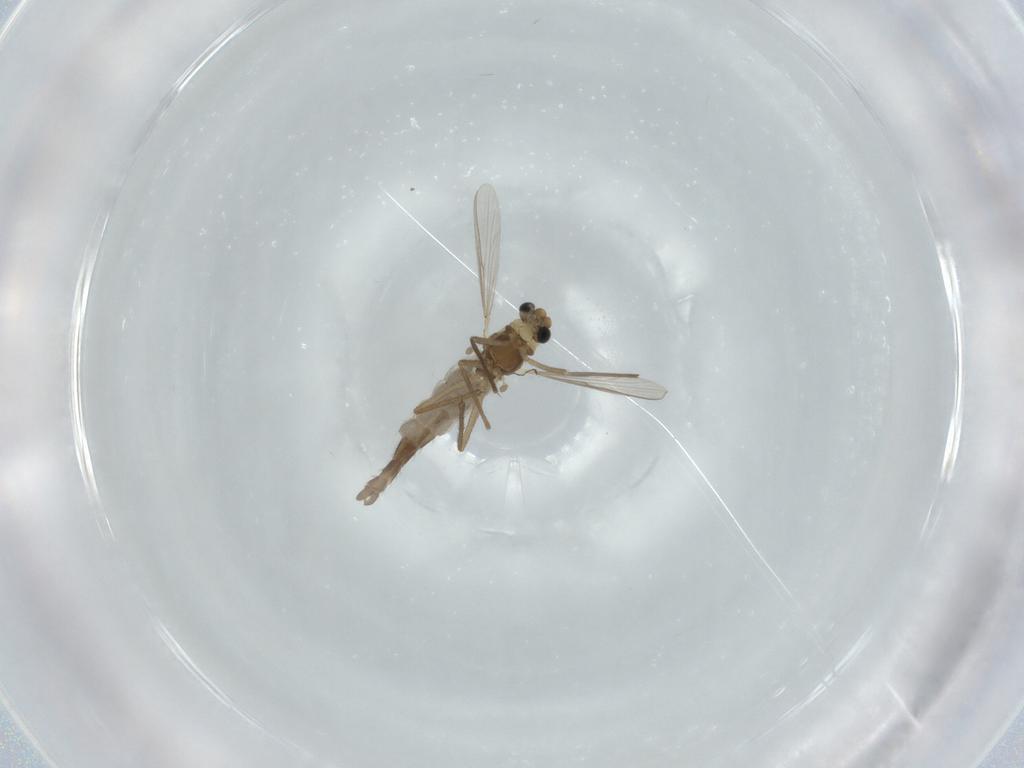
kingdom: Animalia
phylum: Arthropoda
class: Insecta
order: Diptera
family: Chironomidae
